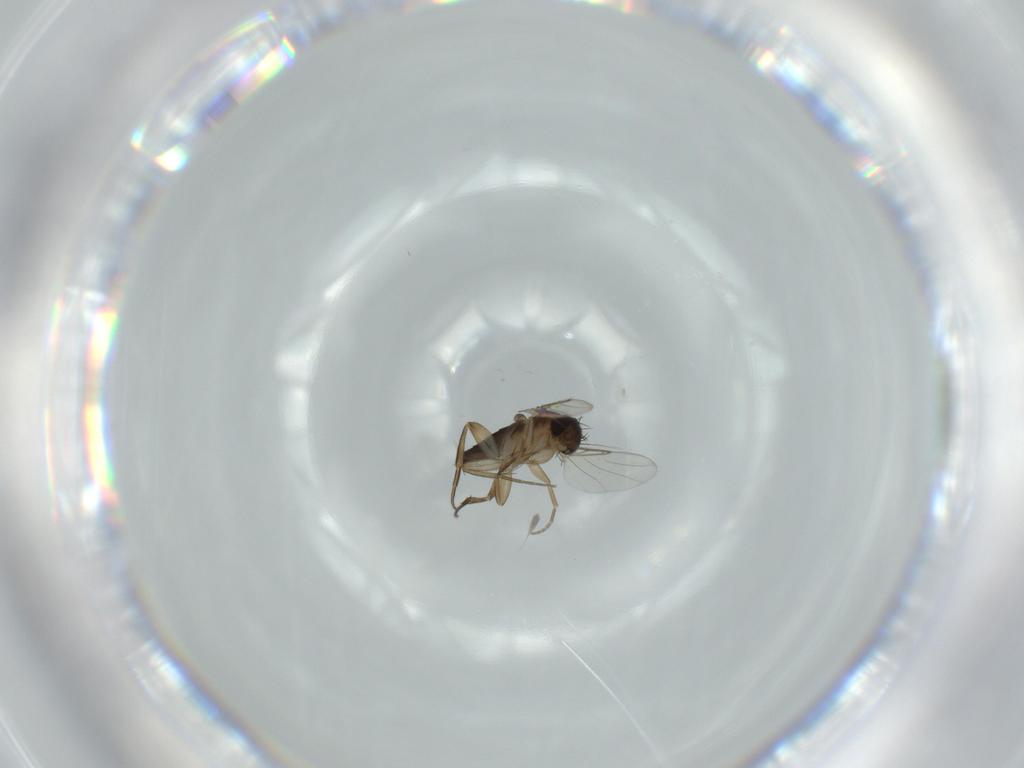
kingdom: Animalia
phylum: Arthropoda
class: Insecta
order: Diptera
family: Phoridae
